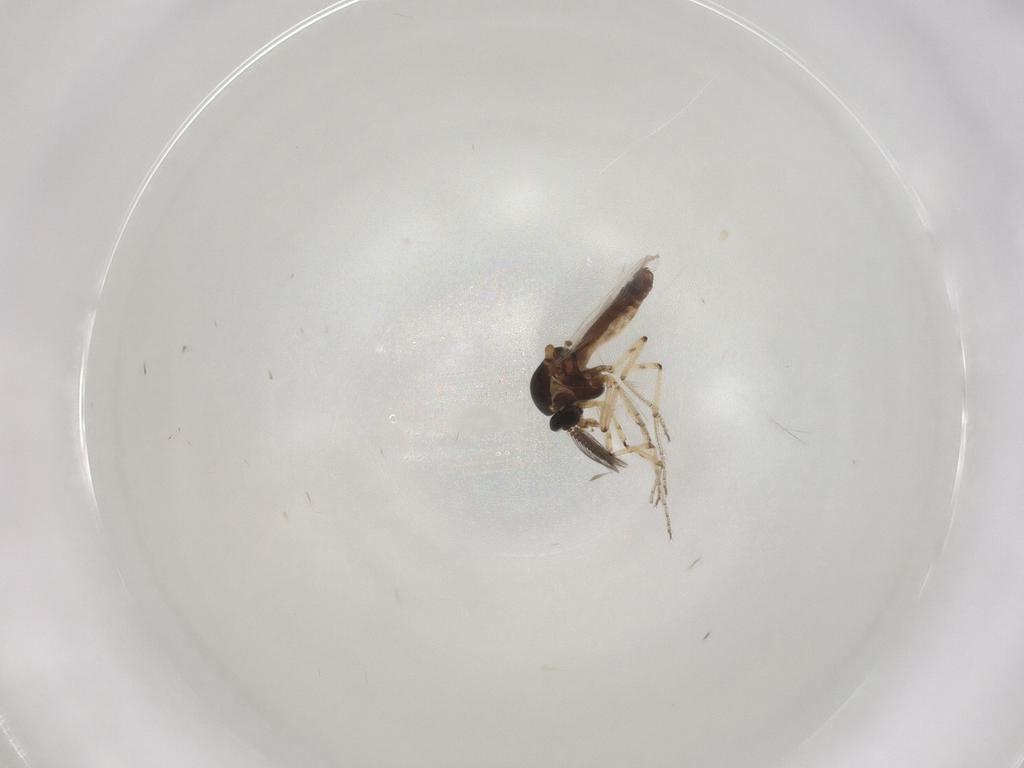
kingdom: Animalia
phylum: Arthropoda
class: Insecta
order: Diptera
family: Ceratopogonidae
